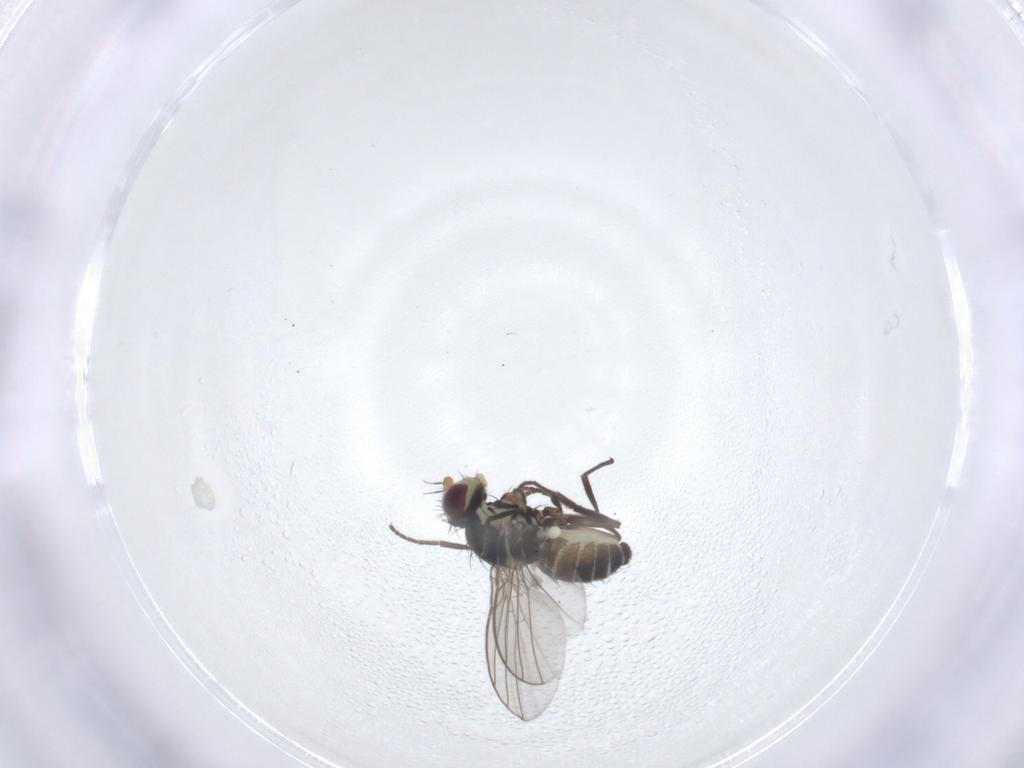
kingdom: Animalia
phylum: Arthropoda
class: Insecta
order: Diptera
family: Agromyzidae
